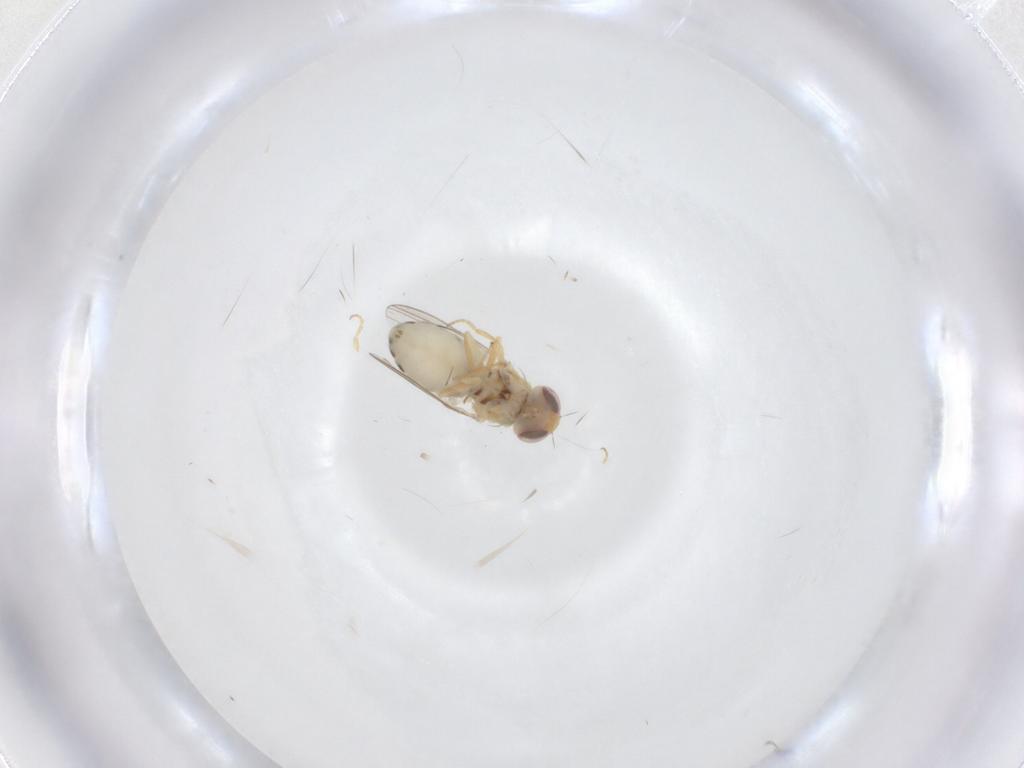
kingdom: Animalia
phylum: Arthropoda
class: Insecta
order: Diptera
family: Chyromyidae
